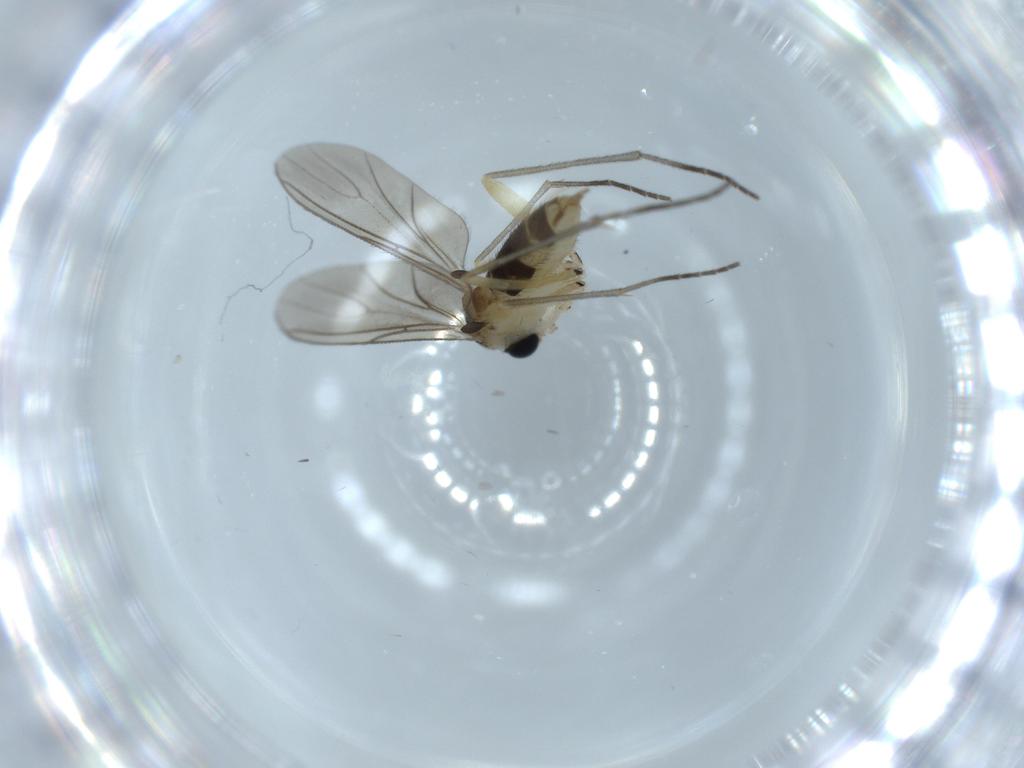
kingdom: Animalia
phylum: Arthropoda
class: Insecta
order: Diptera
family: Sciaridae
